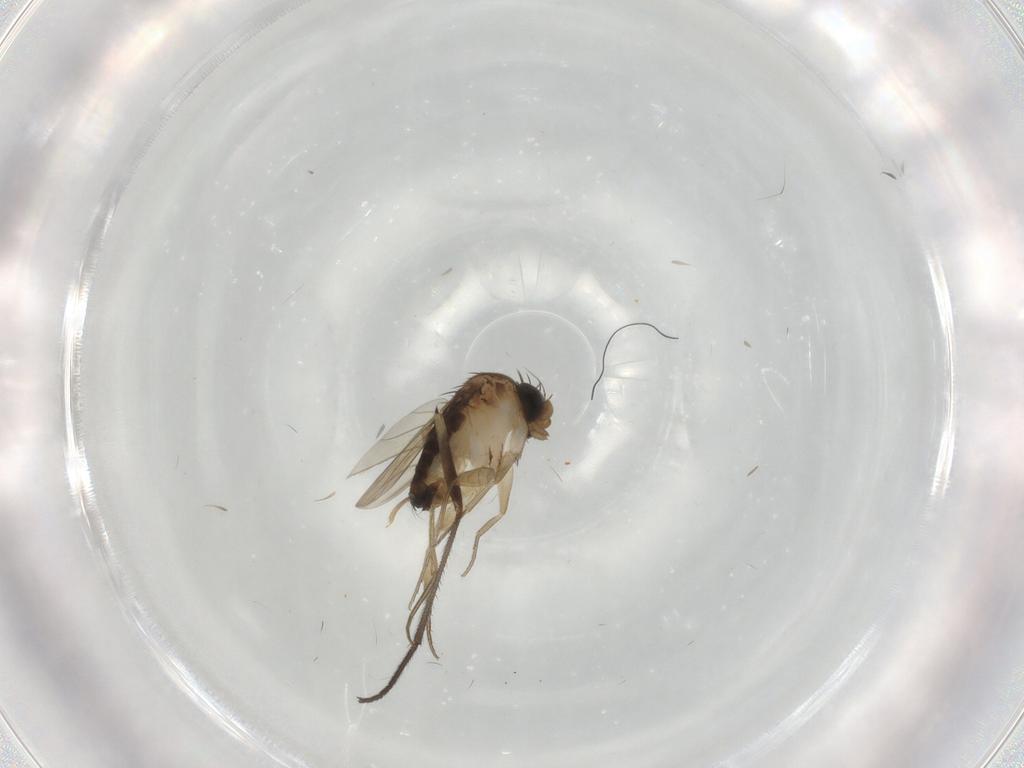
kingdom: Animalia
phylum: Arthropoda
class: Insecta
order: Diptera
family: Phoridae
